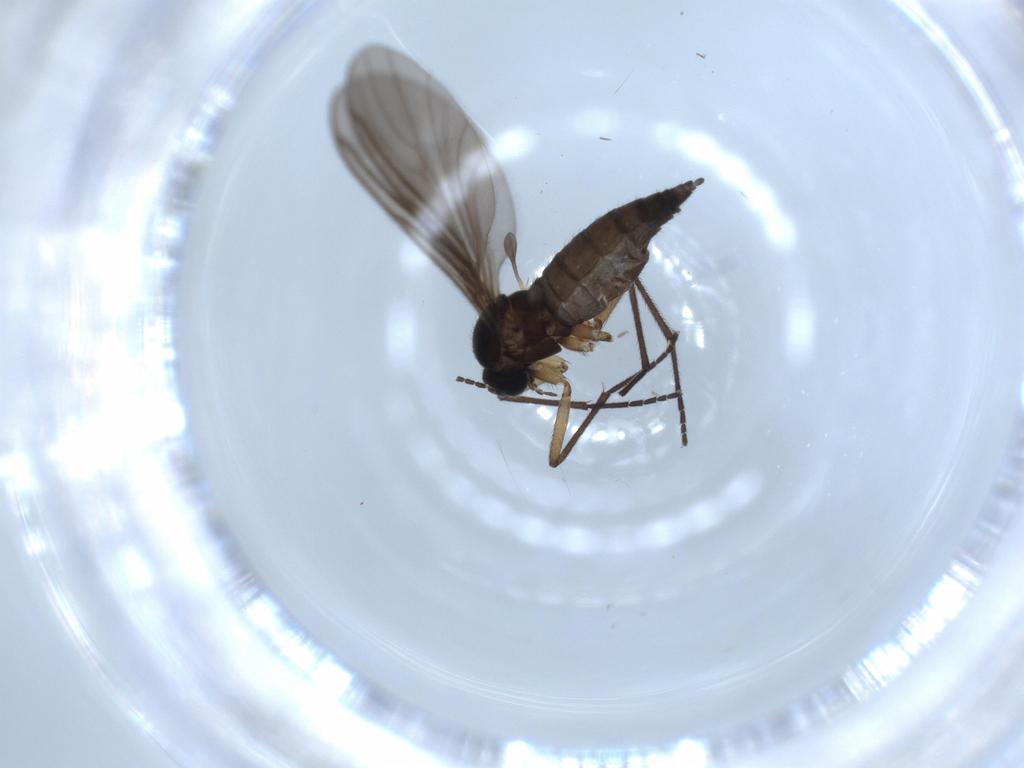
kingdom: Animalia
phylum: Arthropoda
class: Insecta
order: Diptera
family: Sciaridae
